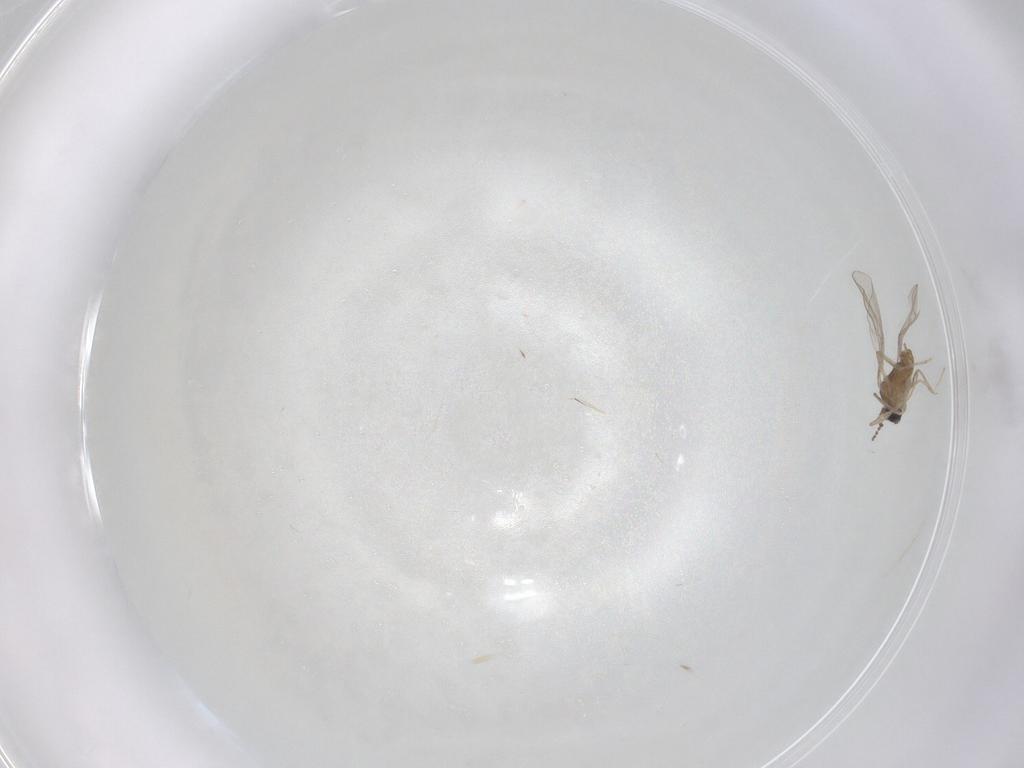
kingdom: Animalia
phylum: Arthropoda
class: Insecta
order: Diptera
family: Cecidomyiidae
